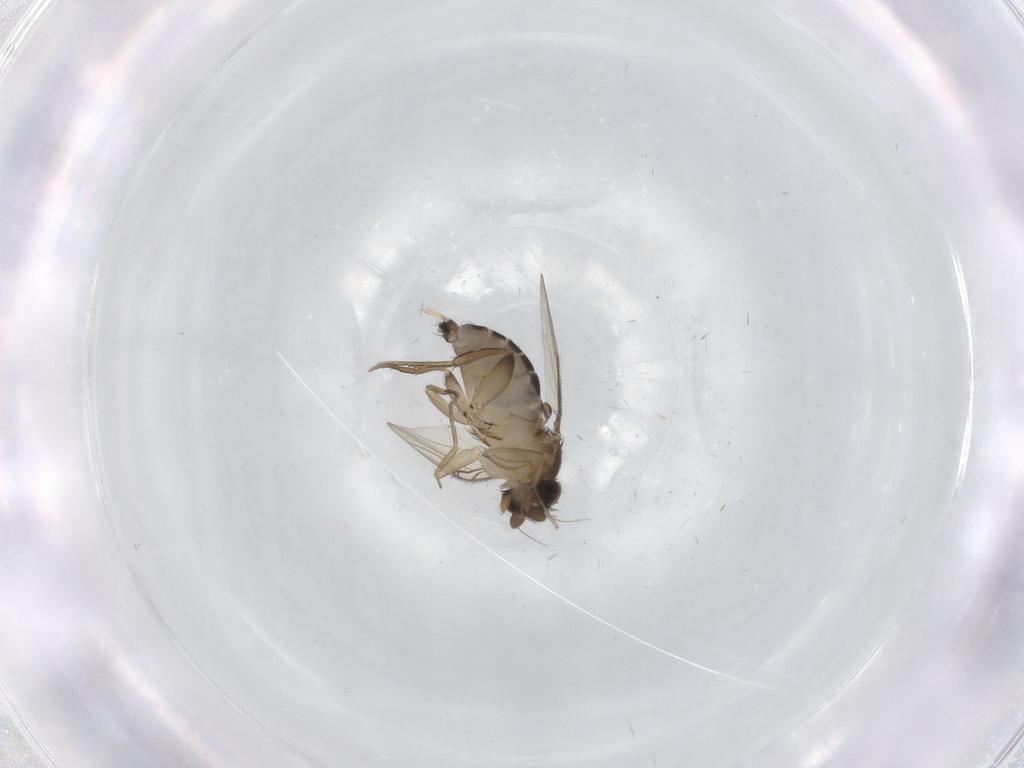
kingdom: Animalia
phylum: Arthropoda
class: Insecta
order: Diptera
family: Phoridae
